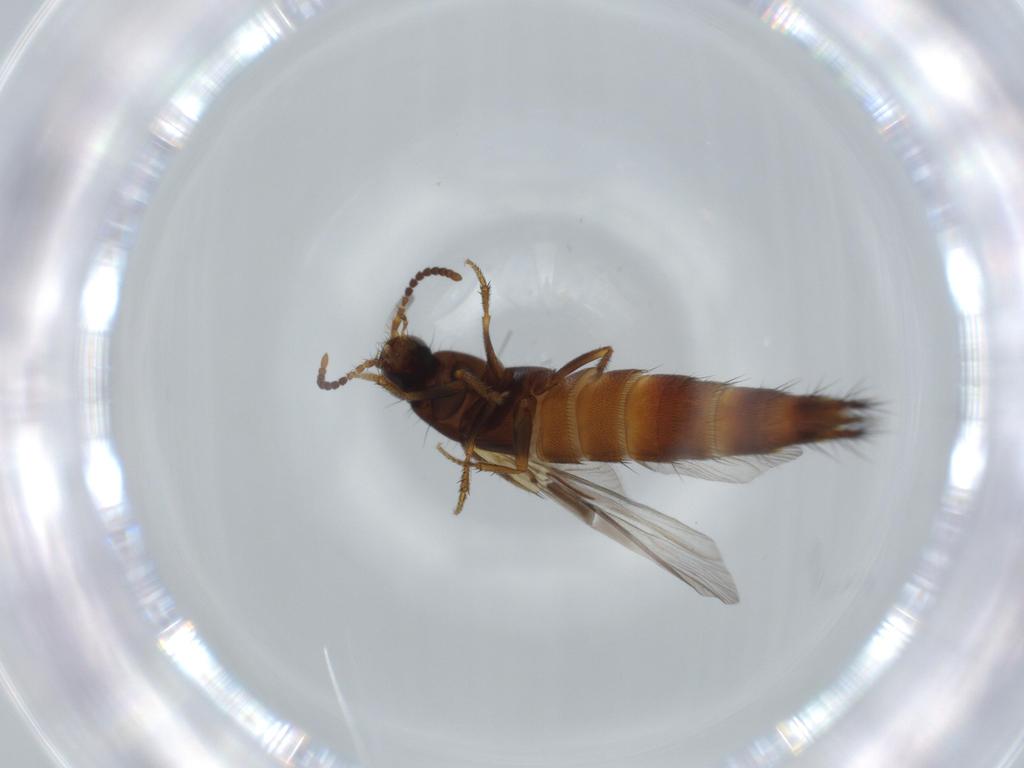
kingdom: Animalia
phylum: Arthropoda
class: Insecta
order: Coleoptera
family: Staphylinidae
